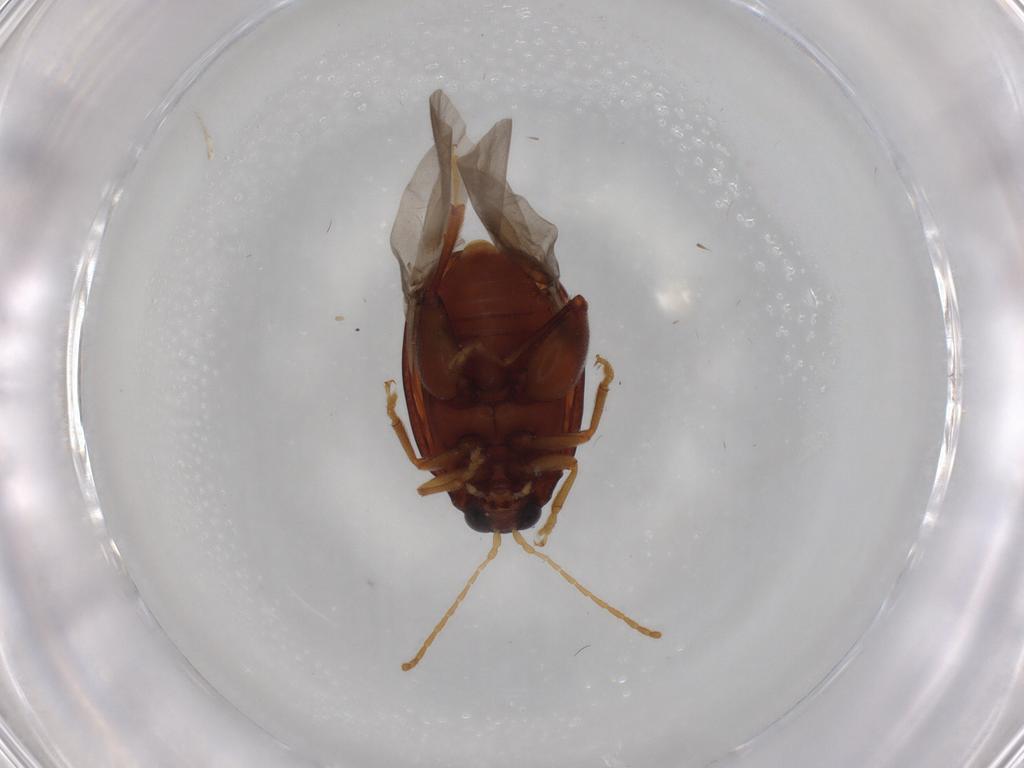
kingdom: Animalia
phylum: Arthropoda
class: Insecta
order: Coleoptera
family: Chrysomelidae
